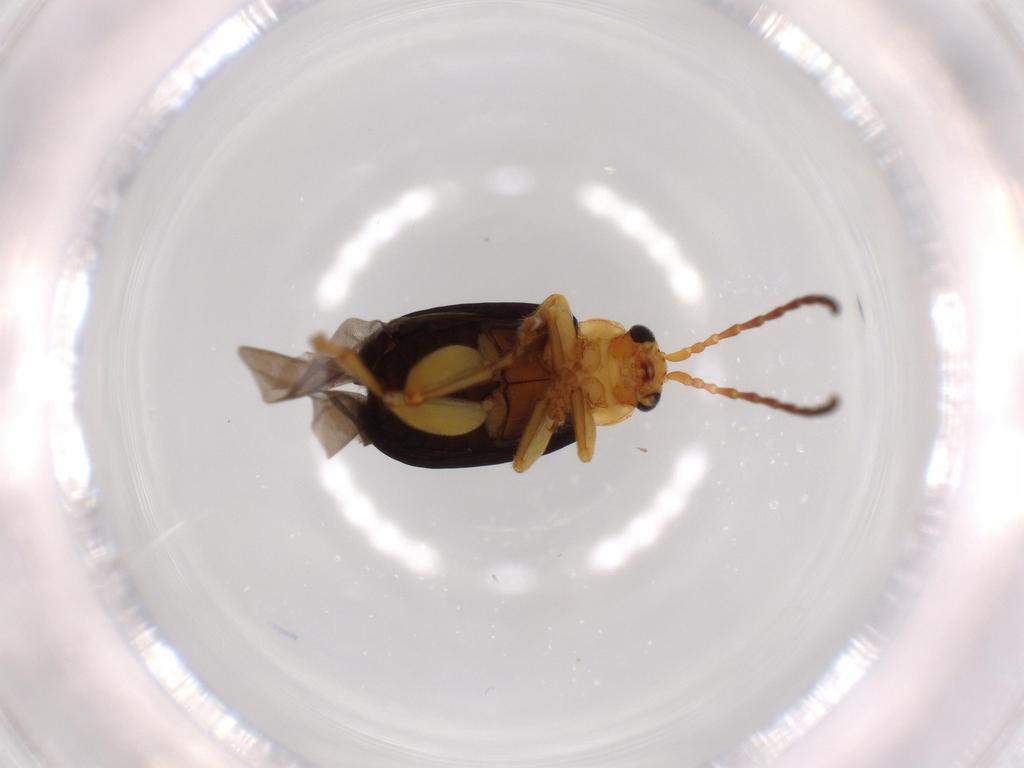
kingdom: Animalia
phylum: Arthropoda
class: Insecta
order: Coleoptera
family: Chrysomelidae
